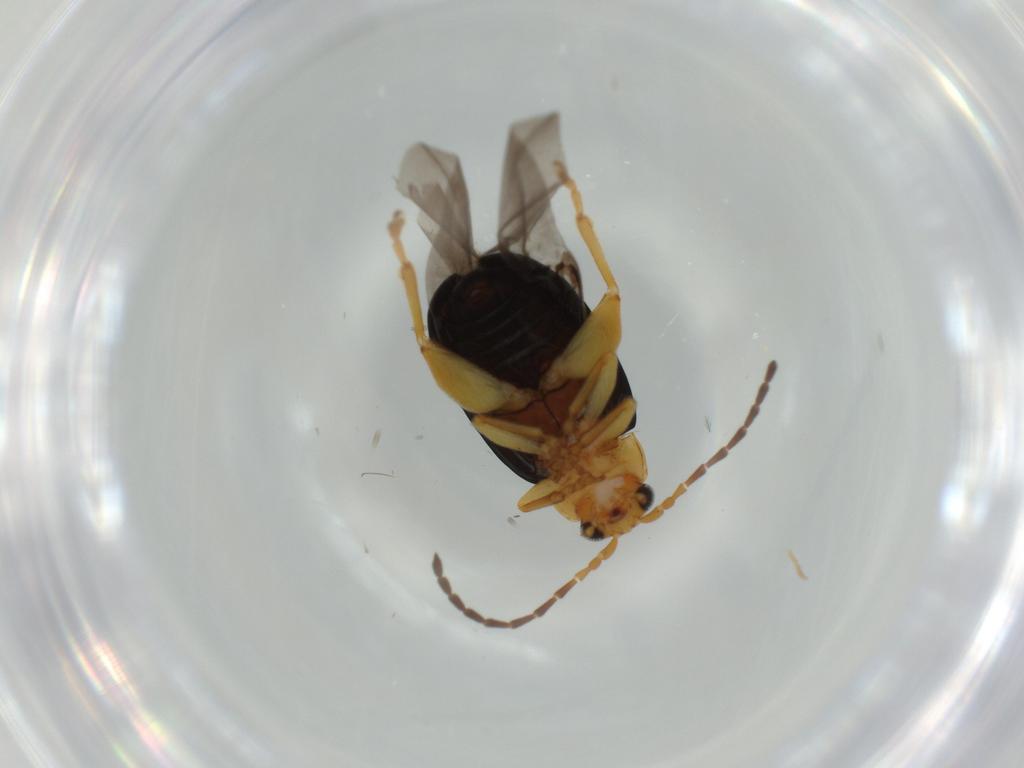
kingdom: Animalia
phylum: Arthropoda
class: Insecta
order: Coleoptera
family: Chrysomelidae
